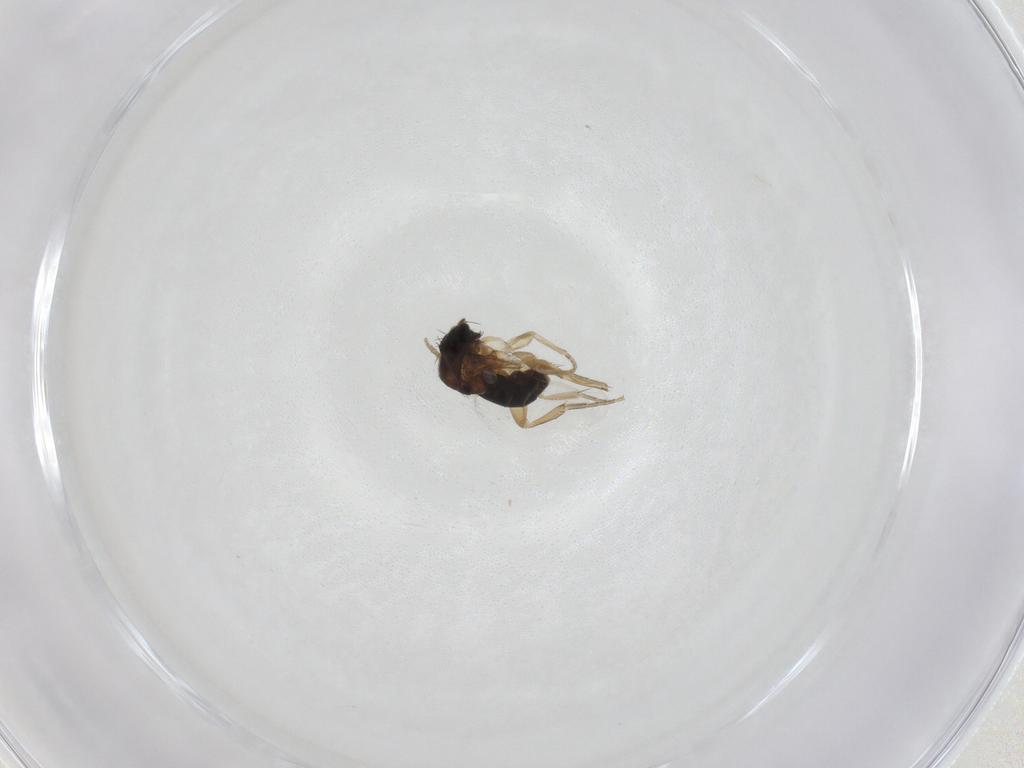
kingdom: Animalia
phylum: Arthropoda
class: Insecta
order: Diptera
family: Phoridae
